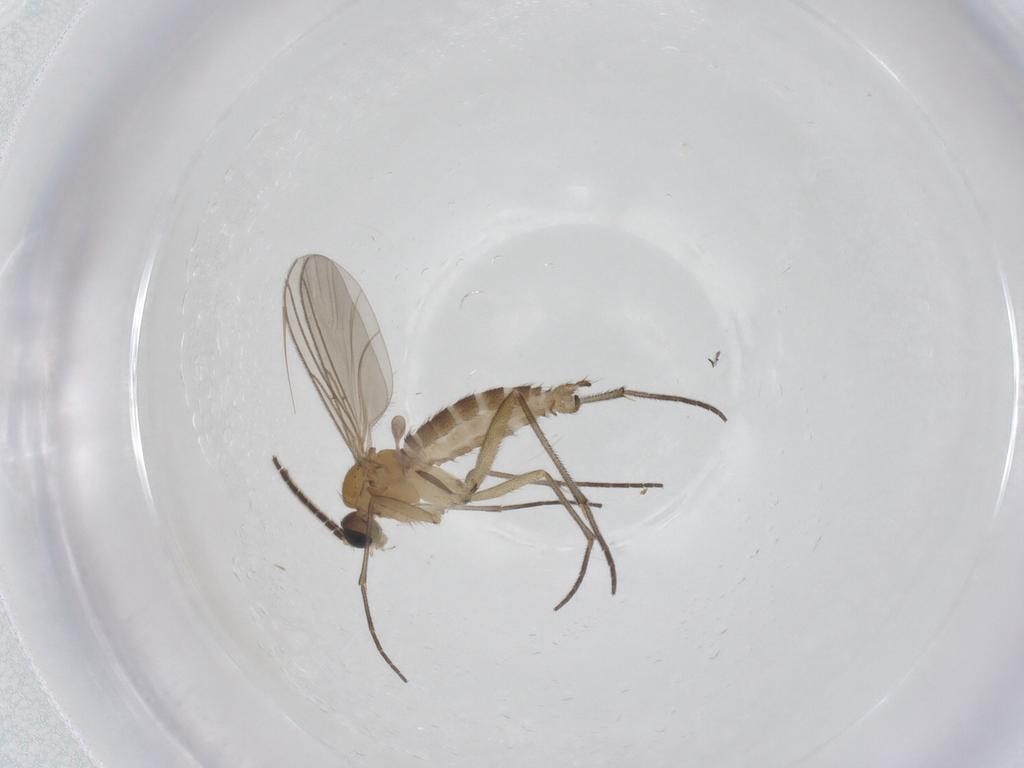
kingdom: Animalia
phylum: Arthropoda
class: Insecta
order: Diptera
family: Sciaridae
